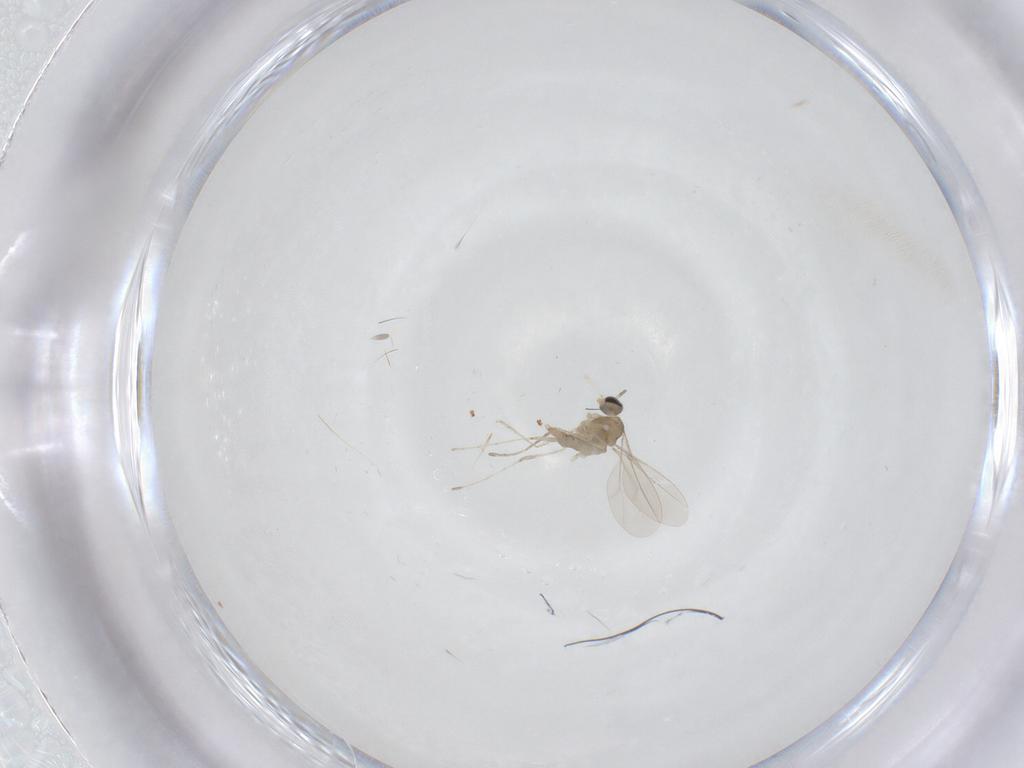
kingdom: Animalia
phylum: Arthropoda
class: Insecta
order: Diptera
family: Cecidomyiidae
